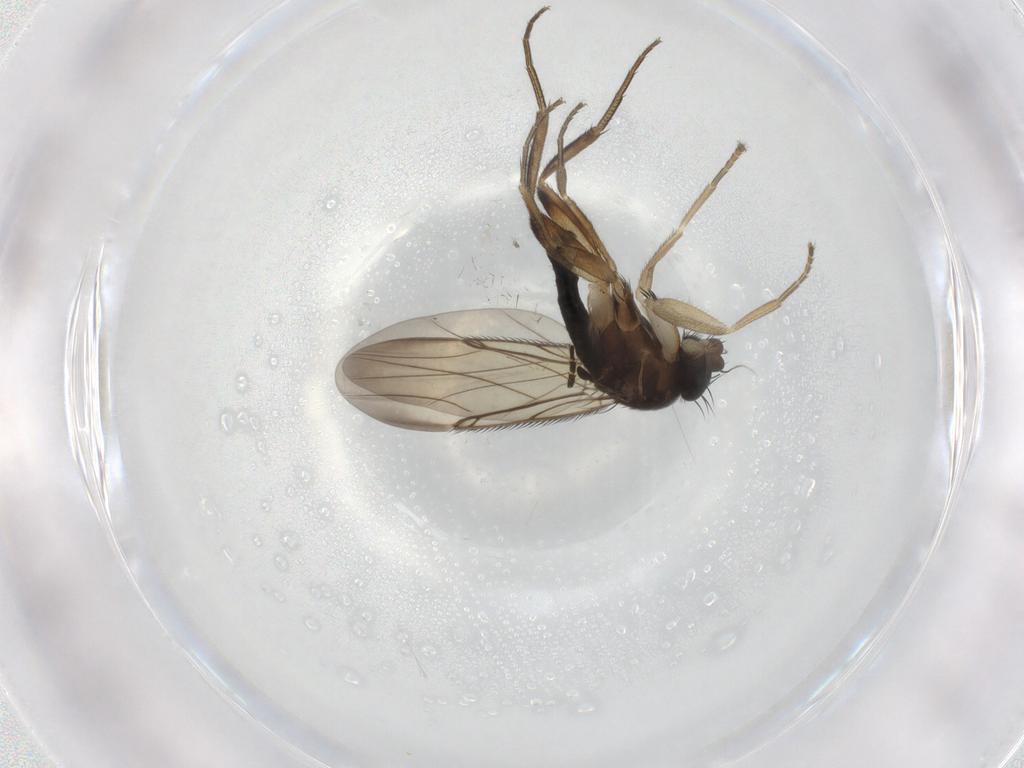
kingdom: Animalia
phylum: Arthropoda
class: Insecta
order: Diptera
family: Phoridae
